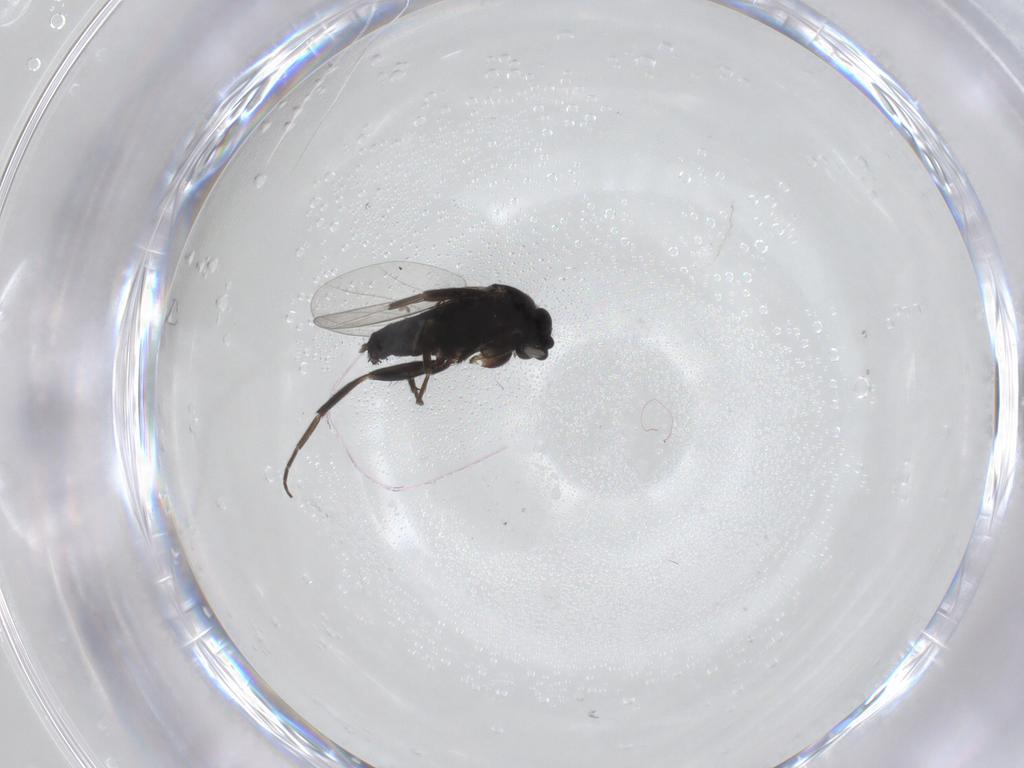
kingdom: Animalia
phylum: Arthropoda
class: Insecta
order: Diptera
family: Phoridae
